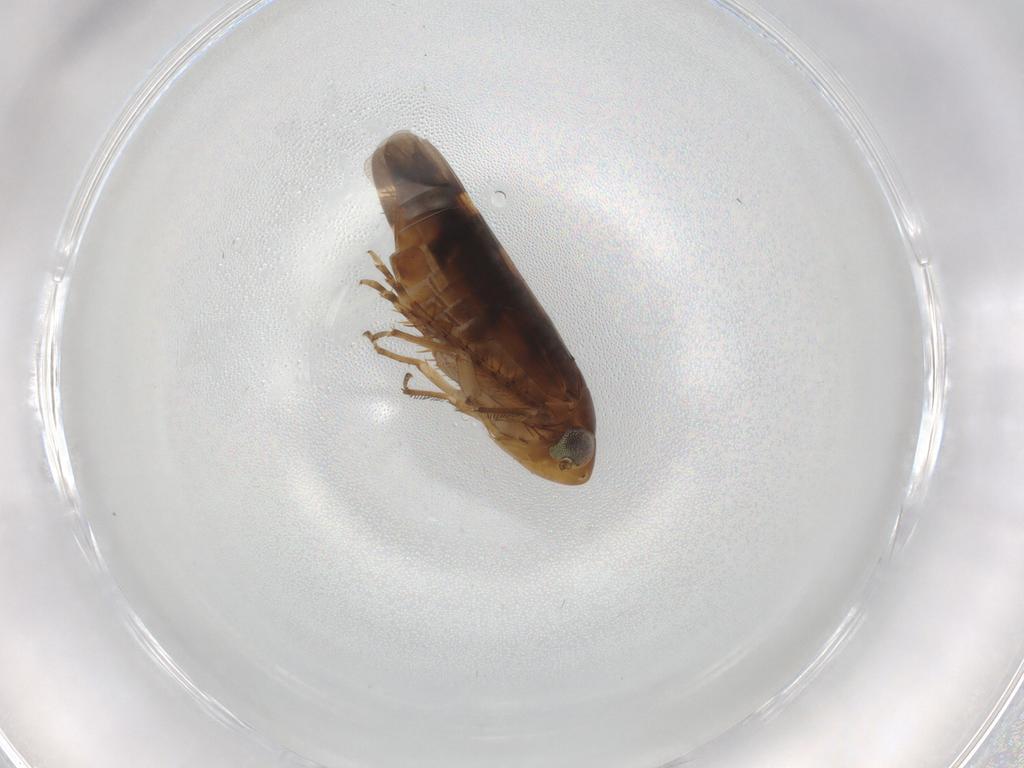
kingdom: Animalia
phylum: Arthropoda
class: Insecta
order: Hemiptera
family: Cicadellidae
